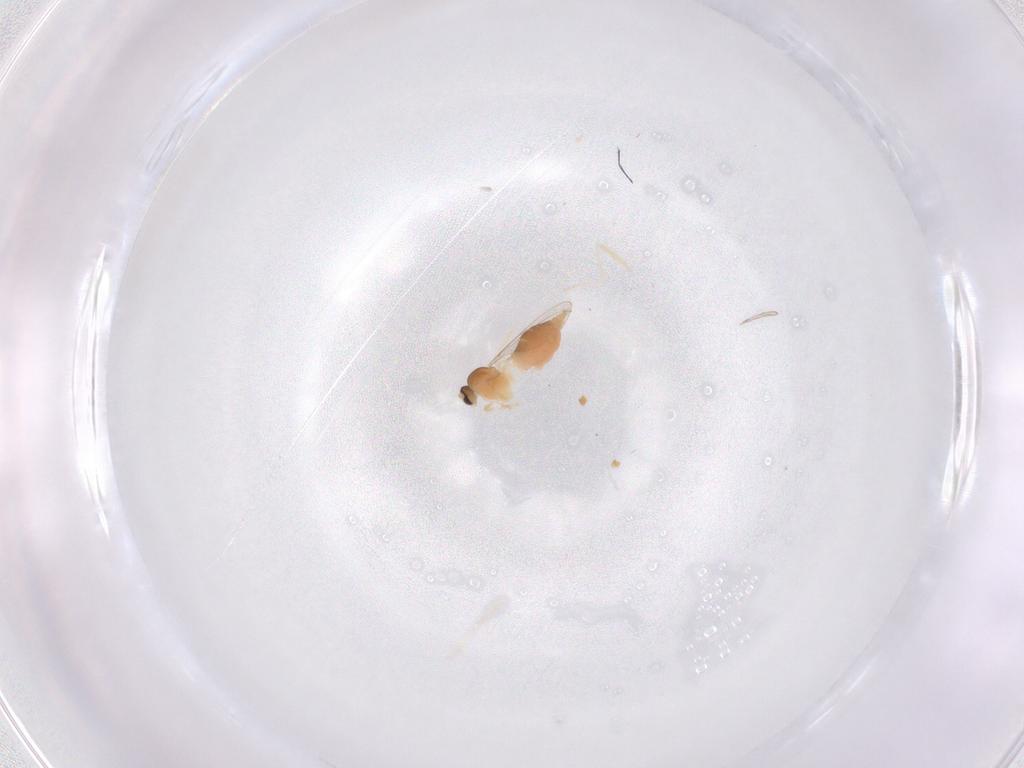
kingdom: Animalia
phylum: Arthropoda
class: Insecta
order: Diptera
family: Cecidomyiidae
